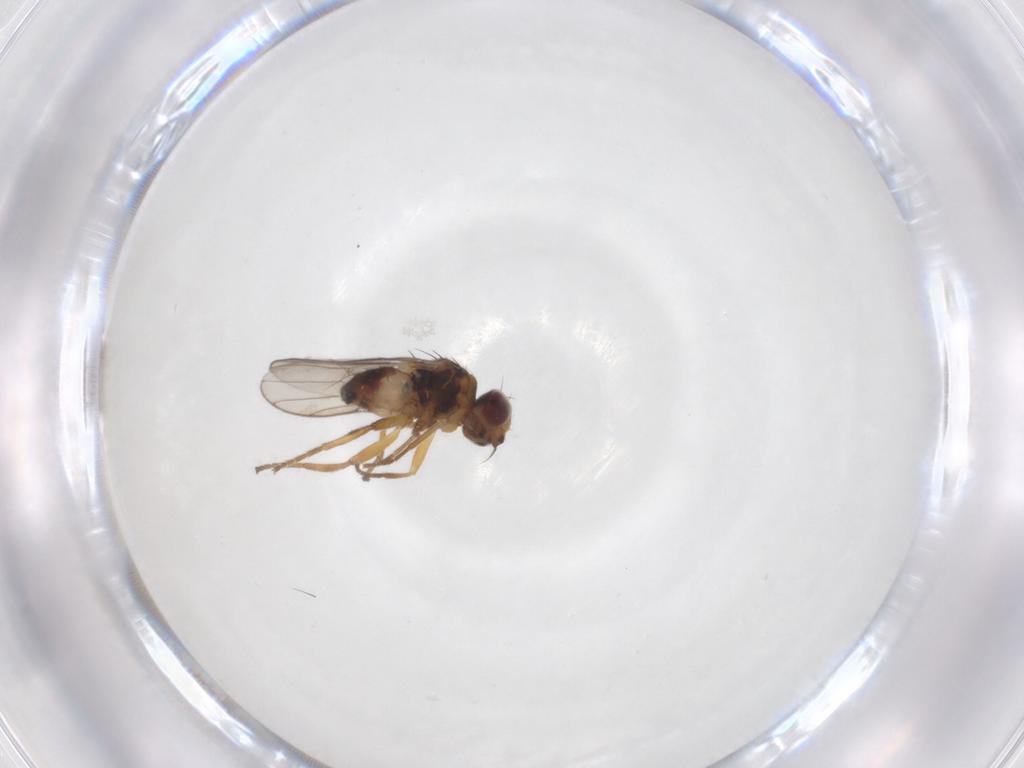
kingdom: Animalia
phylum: Arthropoda
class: Insecta
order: Diptera
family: Chloropidae
